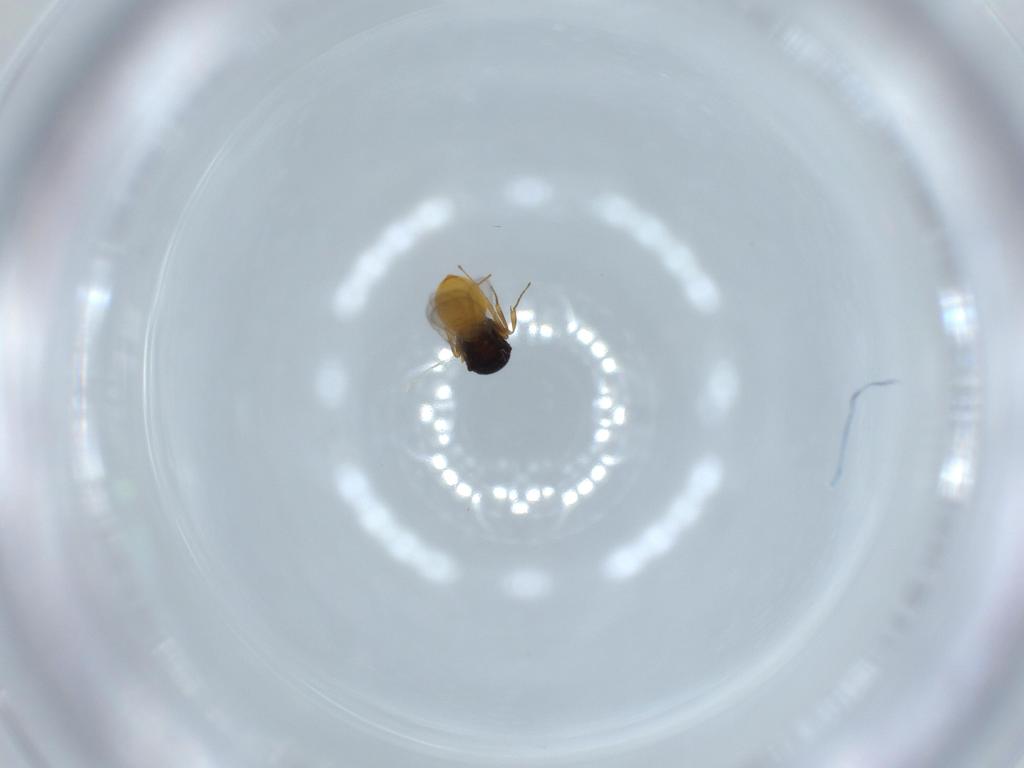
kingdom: Animalia
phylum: Arthropoda
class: Insecta
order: Hymenoptera
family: Scelionidae
